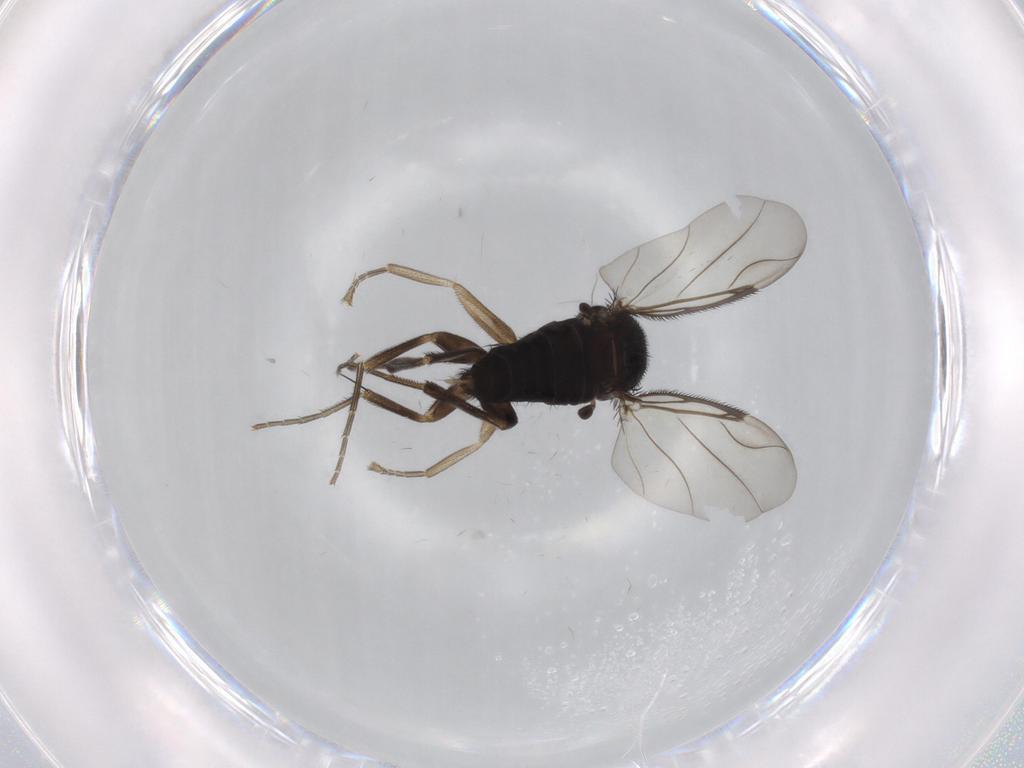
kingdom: Animalia
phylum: Arthropoda
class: Insecta
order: Diptera
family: Phoridae
